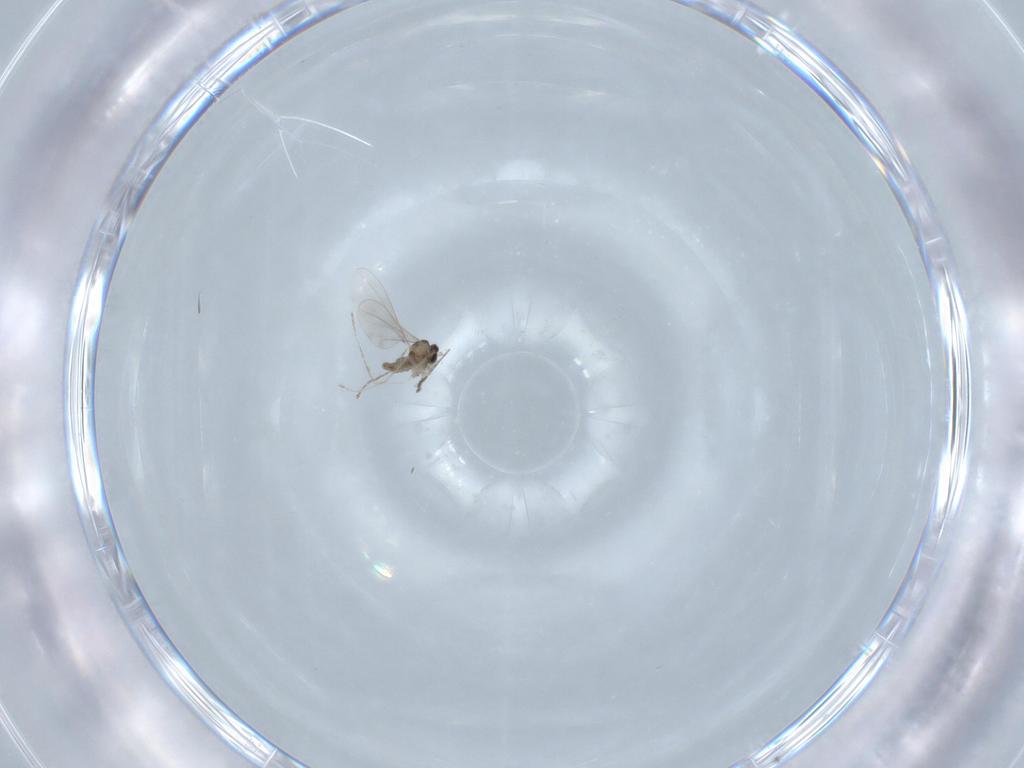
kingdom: Animalia
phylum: Arthropoda
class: Insecta
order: Diptera
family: Cecidomyiidae
